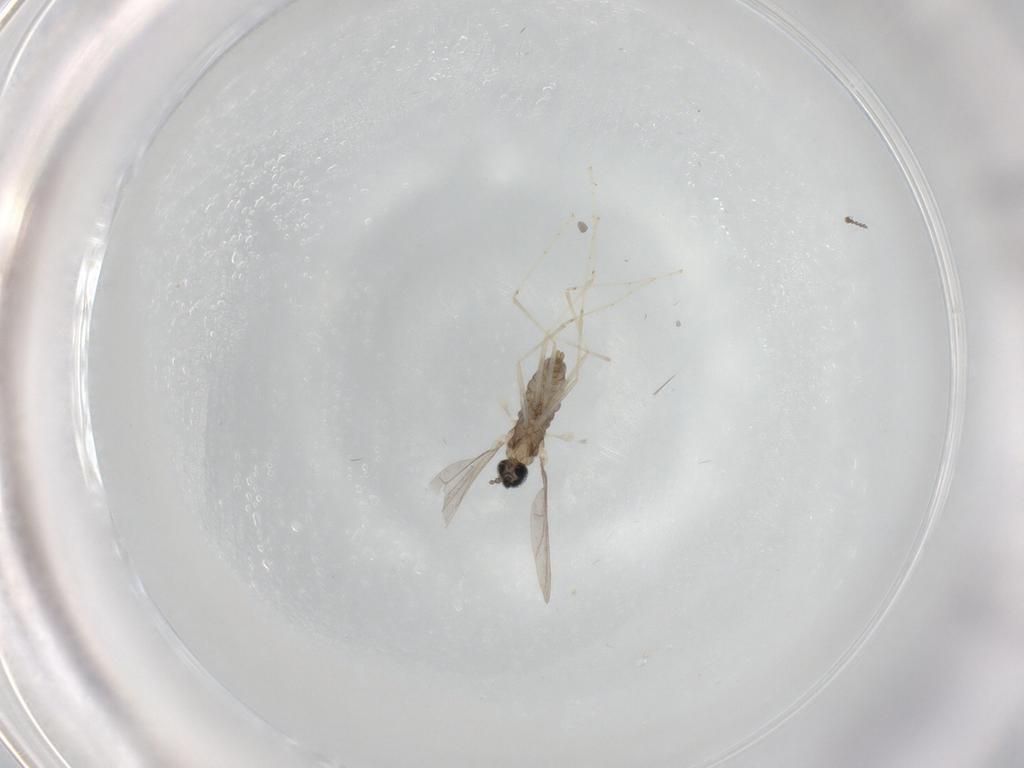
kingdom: Animalia
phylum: Arthropoda
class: Insecta
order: Diptera
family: Cecidomyiidae
